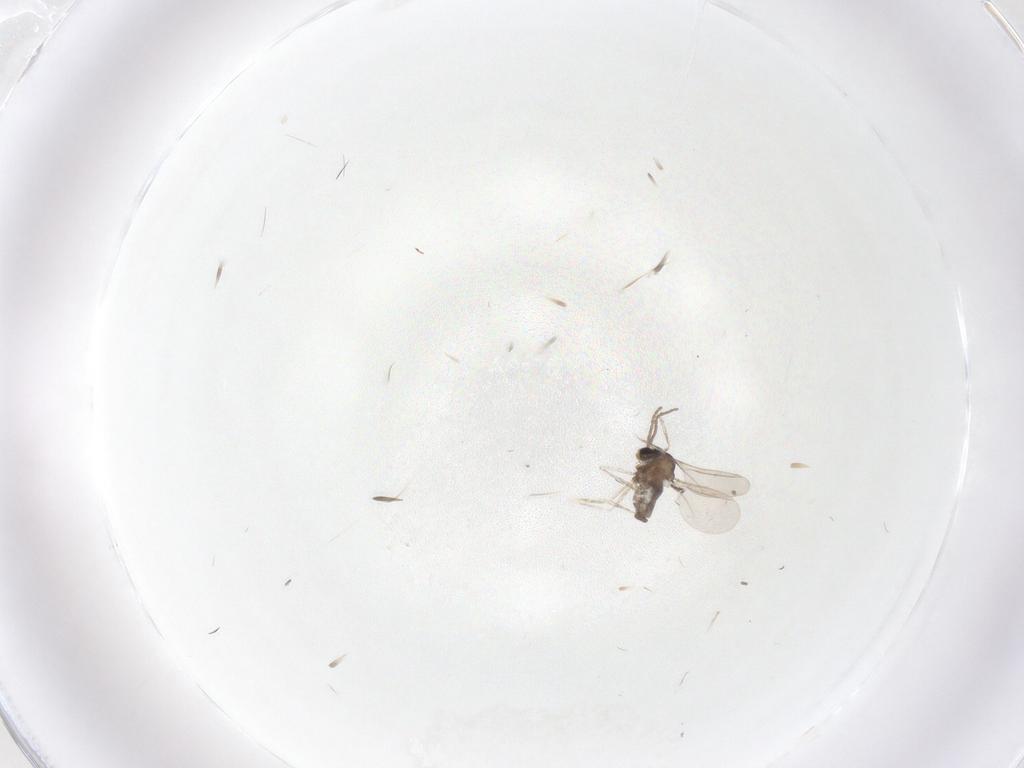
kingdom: Animalia
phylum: Arthropoda
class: Insecta
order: Diptera
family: Cecidomyiidae
